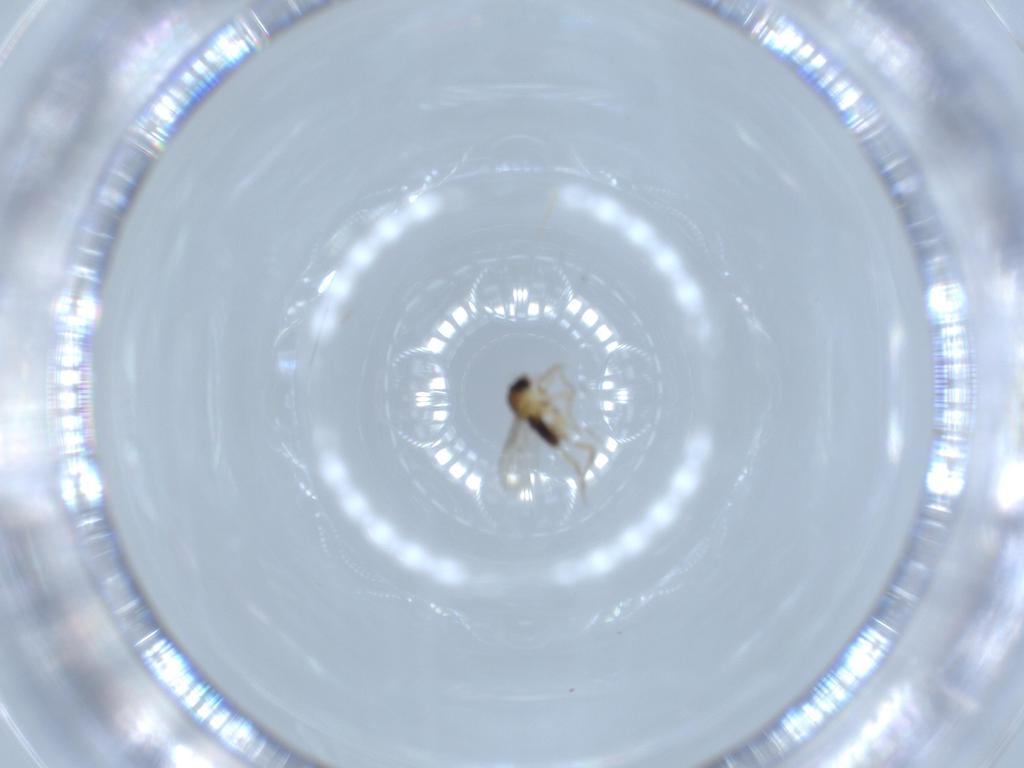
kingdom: Animalia
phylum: Arthropoda
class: Insecta
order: Diptera
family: Phoridae
